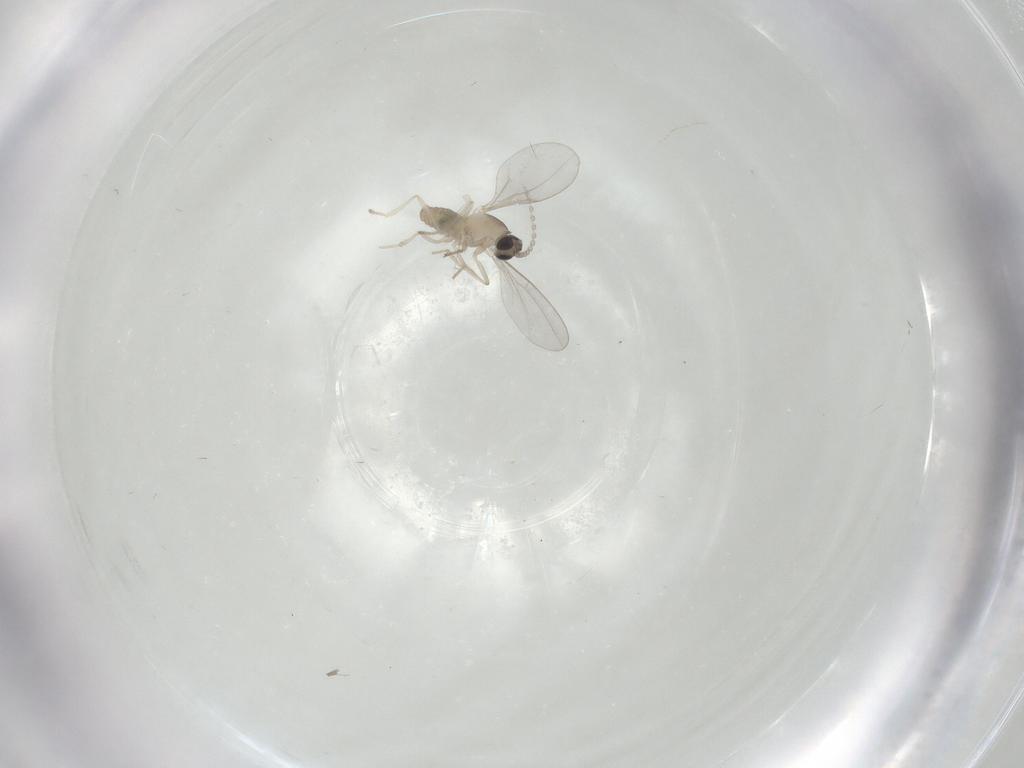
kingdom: Animalia
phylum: Arthropoda
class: Insecta
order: Diptera
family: Cecidomyiidae
